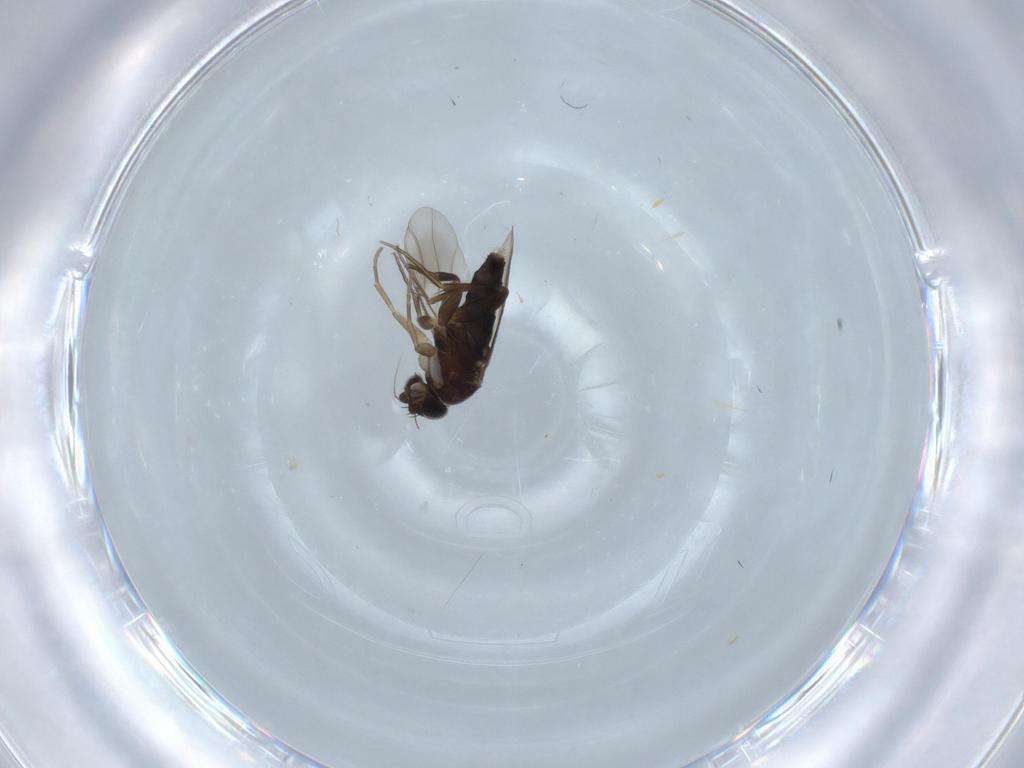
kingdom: Animalia
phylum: Arthropoda
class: Insecta
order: Diptera
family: Phoridae
